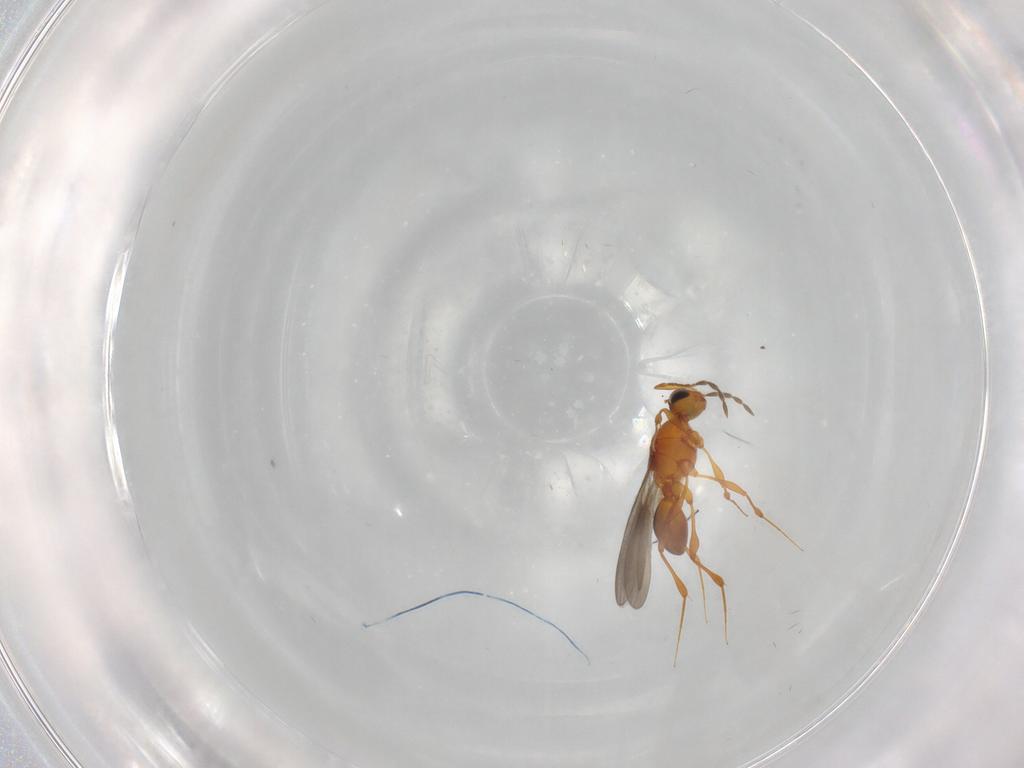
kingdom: Animalia
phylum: Arthropoda
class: Insecta
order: Hymenoptera
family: Platygastridae
